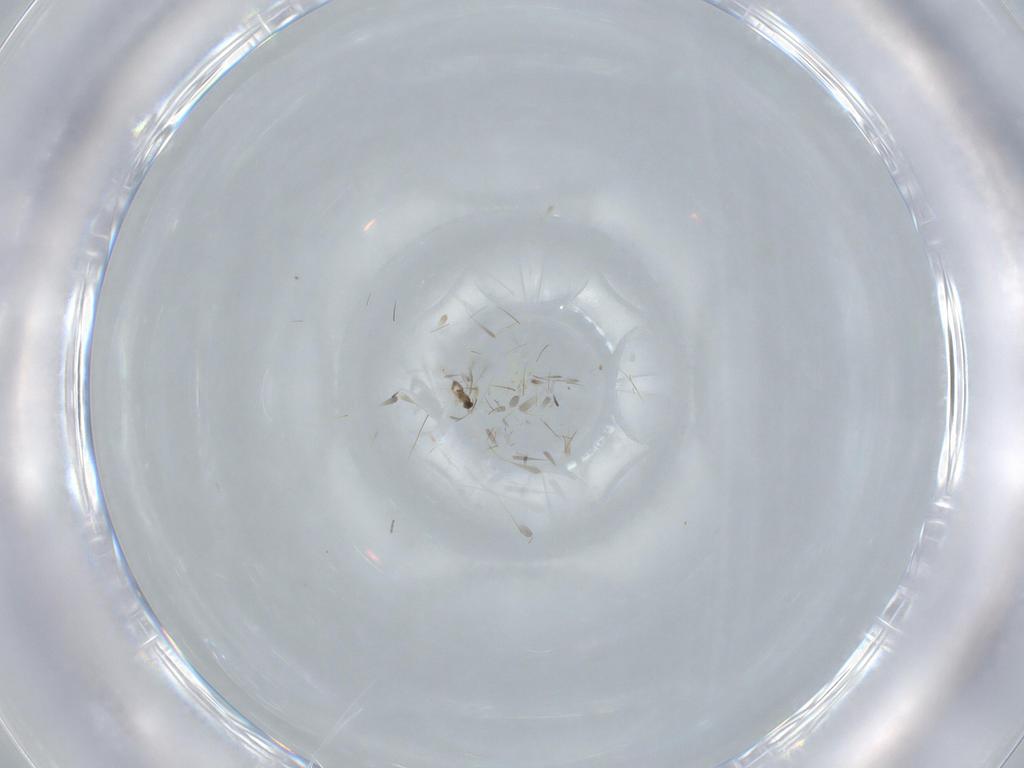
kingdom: Animalia
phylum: Arthropoda
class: Insecta
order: Hymenoptera
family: Mymaridae
